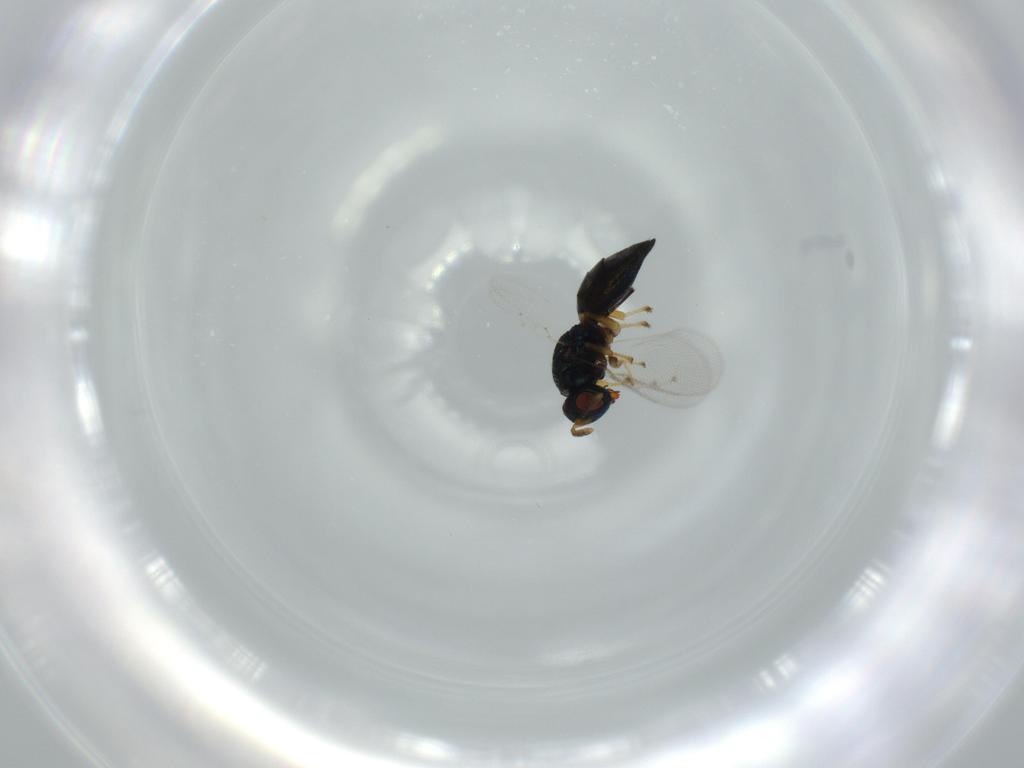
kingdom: Animalia
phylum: Arthropoda
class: Insecta
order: Hymenoptera
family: Pteromalidae
